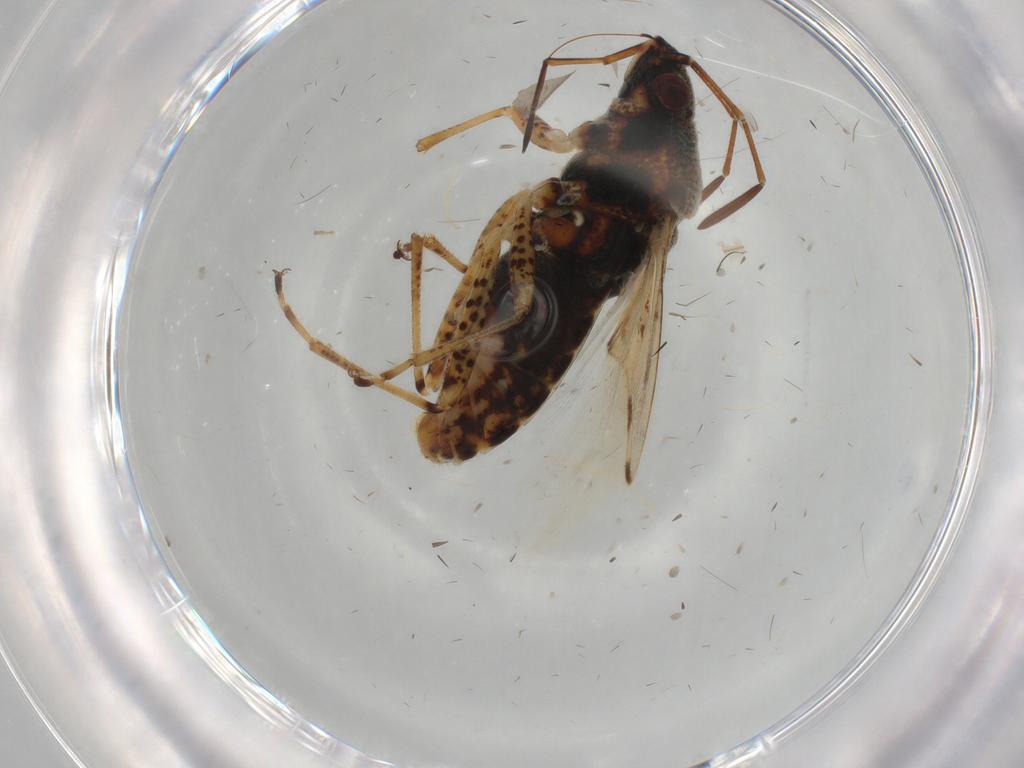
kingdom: Animalia
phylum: Arthropoda
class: Insecta
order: Hemiptera
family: Lygaeidae
